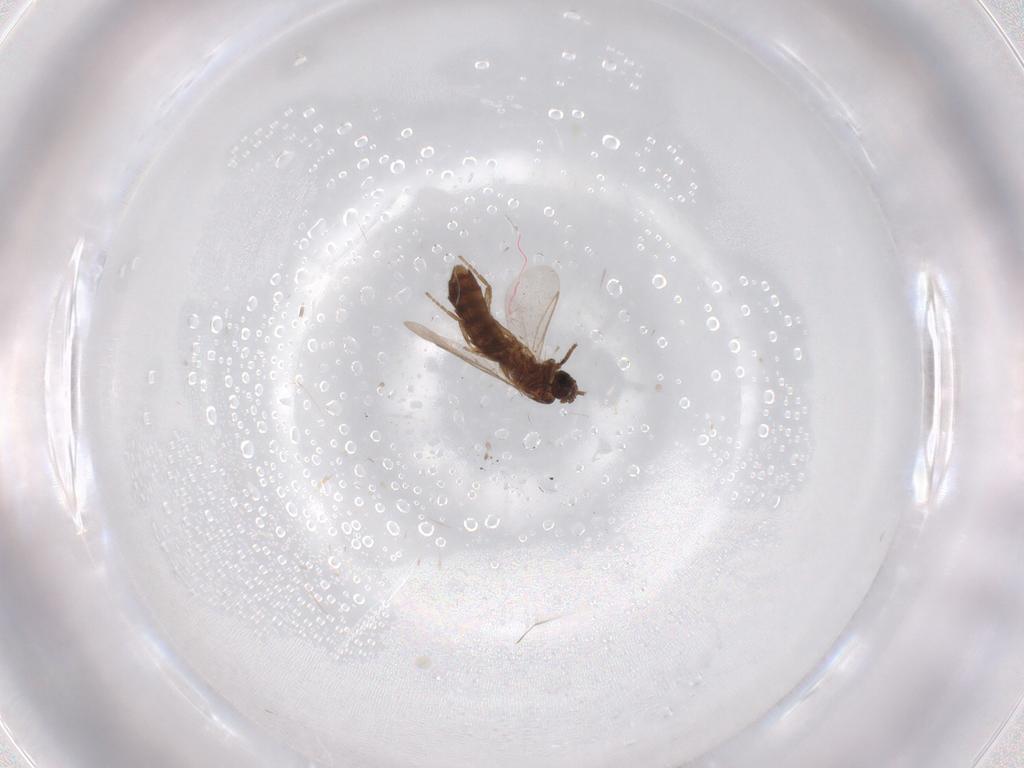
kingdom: Animalia
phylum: Arthropoda
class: Insecta
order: Diptera
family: Scatopsidae
